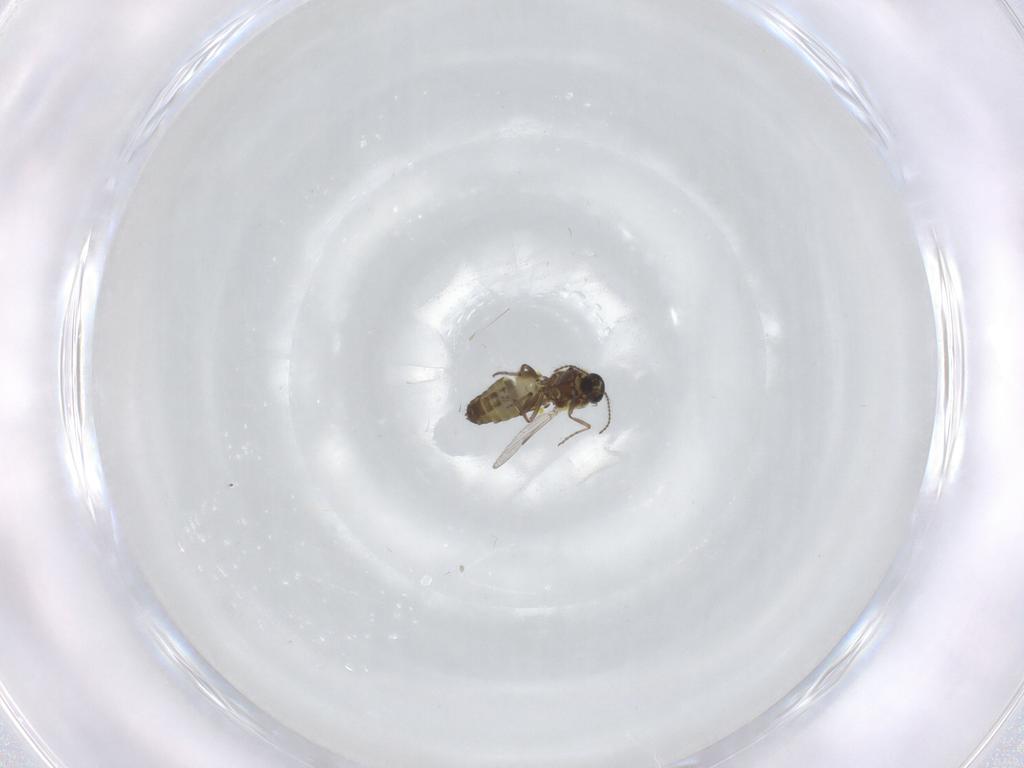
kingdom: Animalia
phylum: Arthropoda
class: Insecta
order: Diptera
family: Ceratopogonidae
